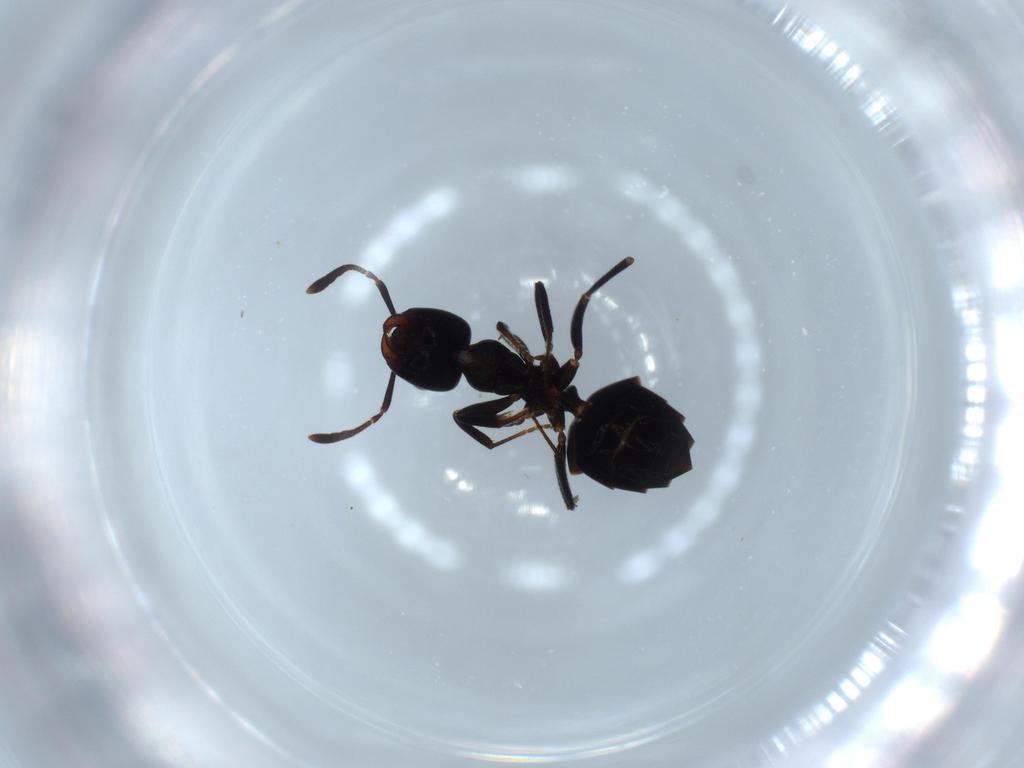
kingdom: Animalia
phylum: Arthropoda
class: Insecta
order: Hymenoptera
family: Formicidae
